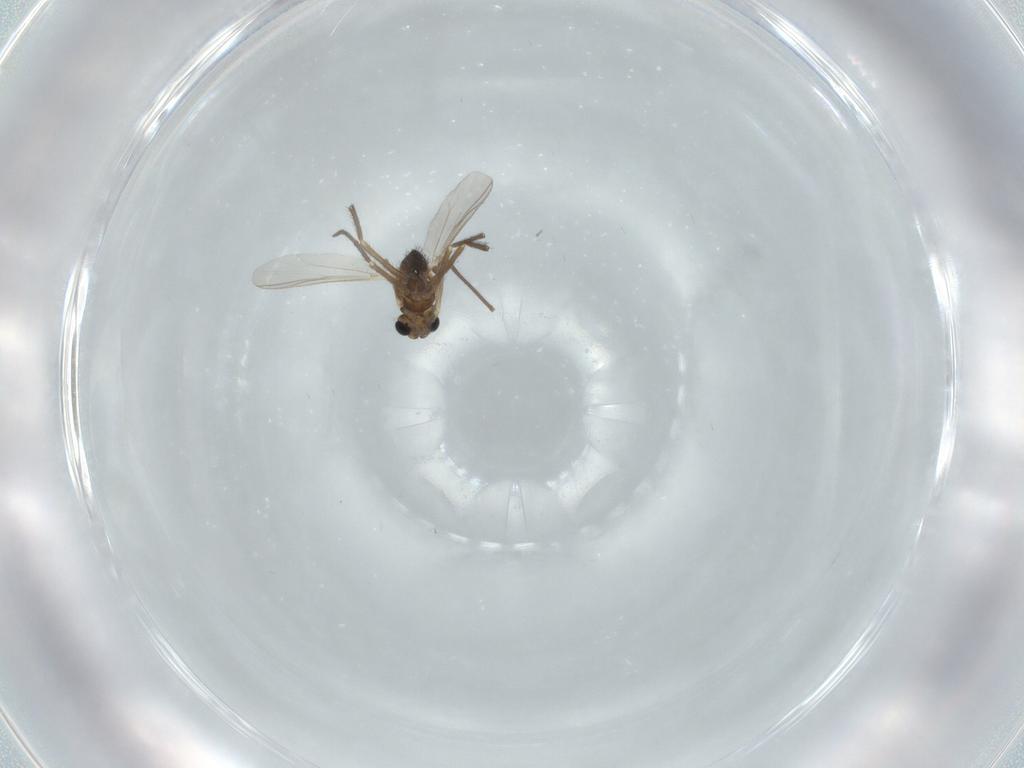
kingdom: Animalia
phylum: Arthropoda
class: Insecta
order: Diptera
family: Chironomidae
